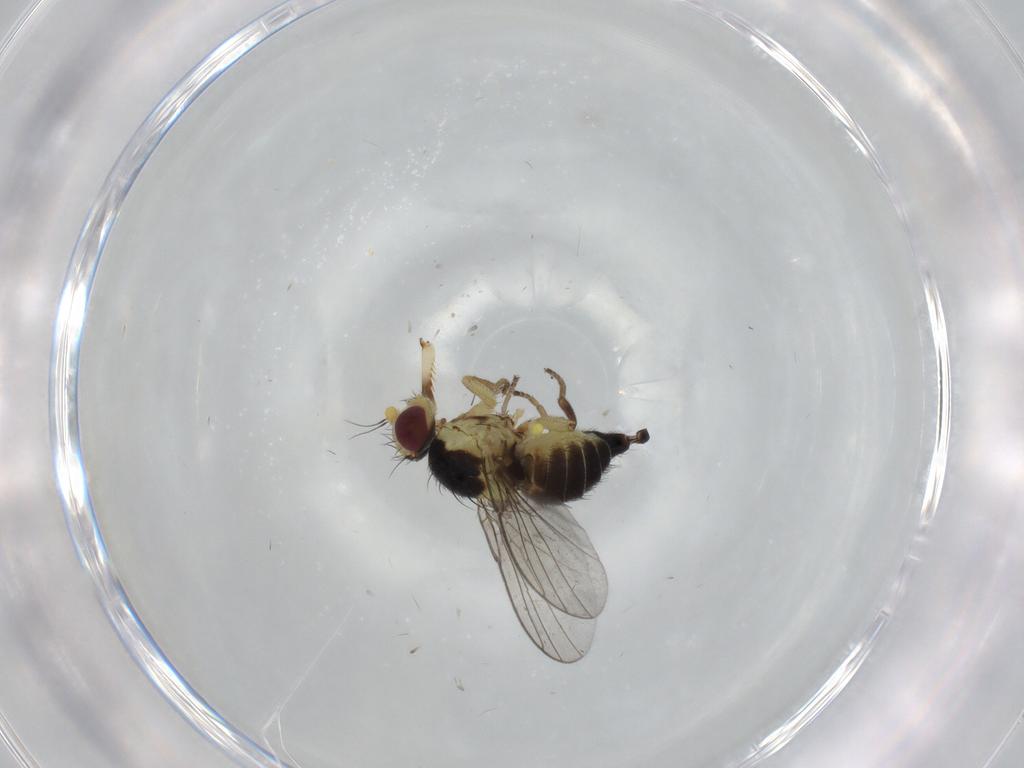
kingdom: Animalia
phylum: Arthropoda
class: Insecta
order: Diptera
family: Agromyzidae
